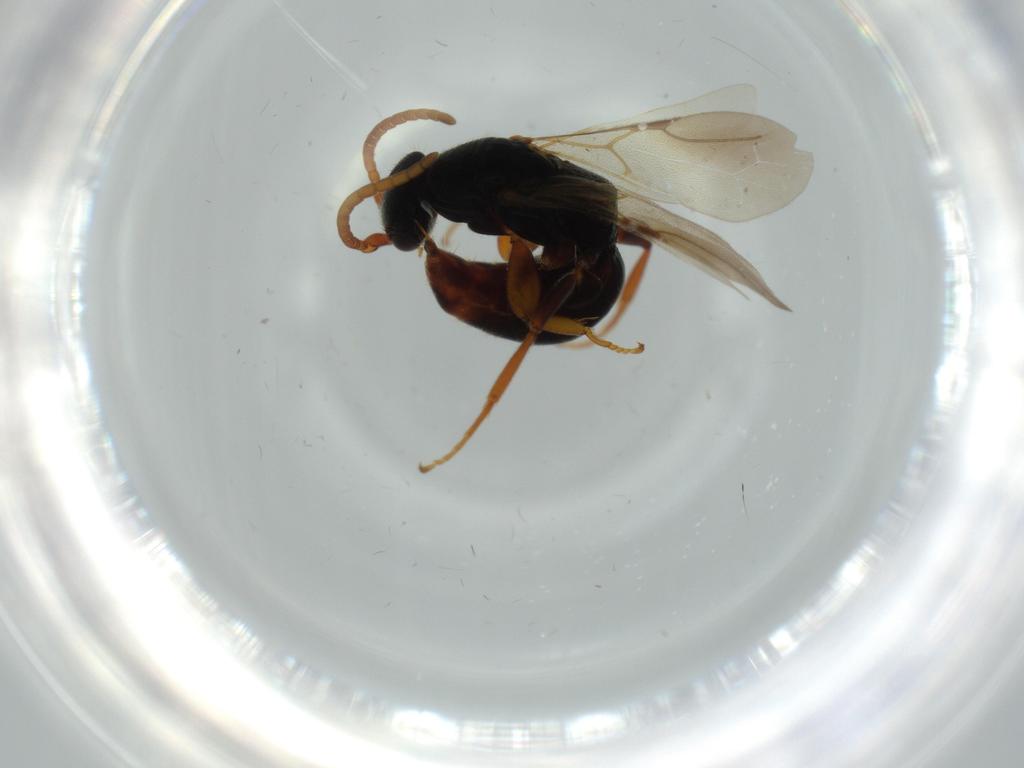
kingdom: Animalia
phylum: Arthropoda
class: Insecta
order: Hymenoptera
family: Bethylidae
